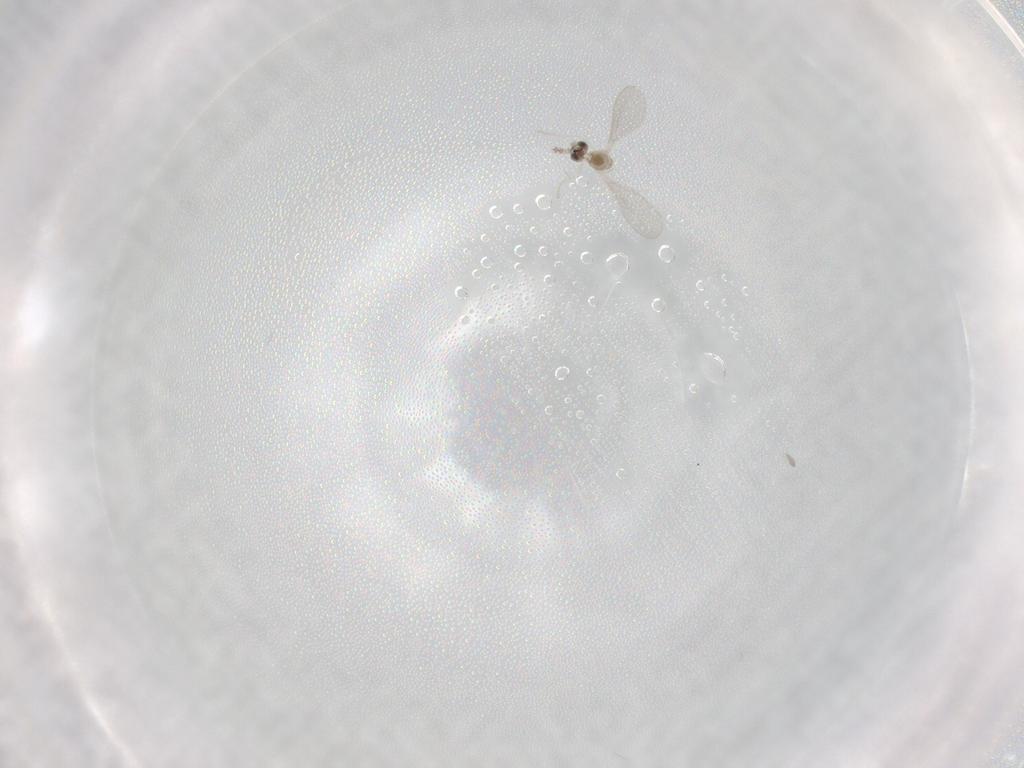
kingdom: Animalia
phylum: Arthropoda
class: Insecta
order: Diptera
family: Cecidomyiidae
